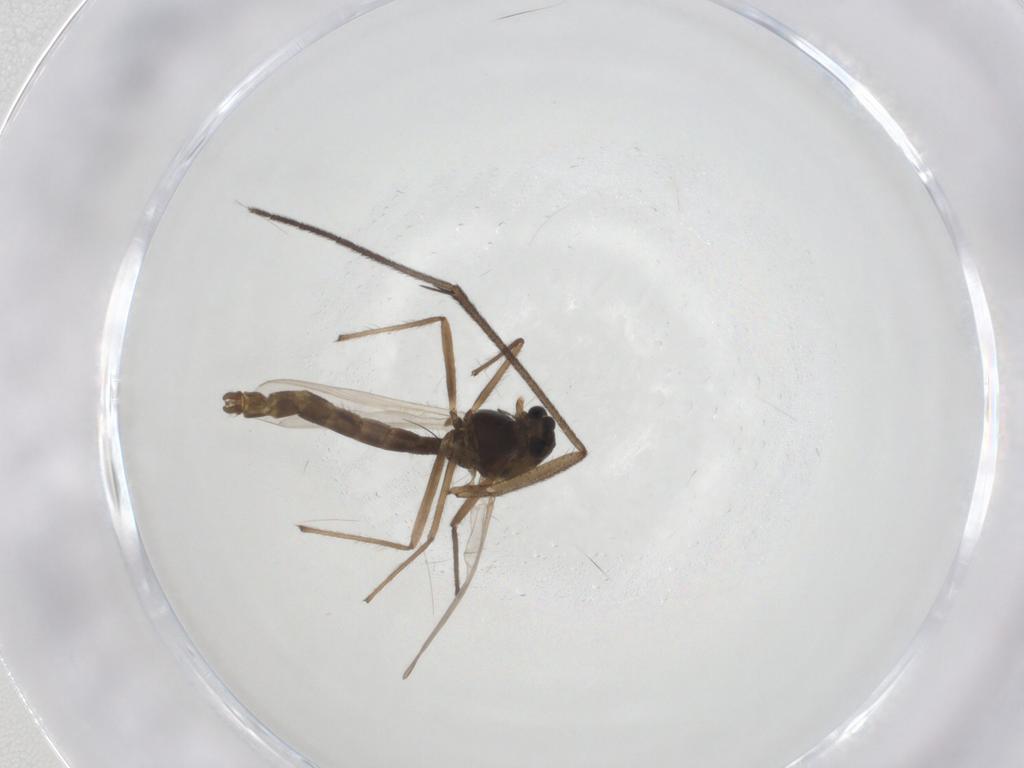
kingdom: Animalia
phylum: Arthropoda
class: Insecta
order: Diptera
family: Chironomidae
